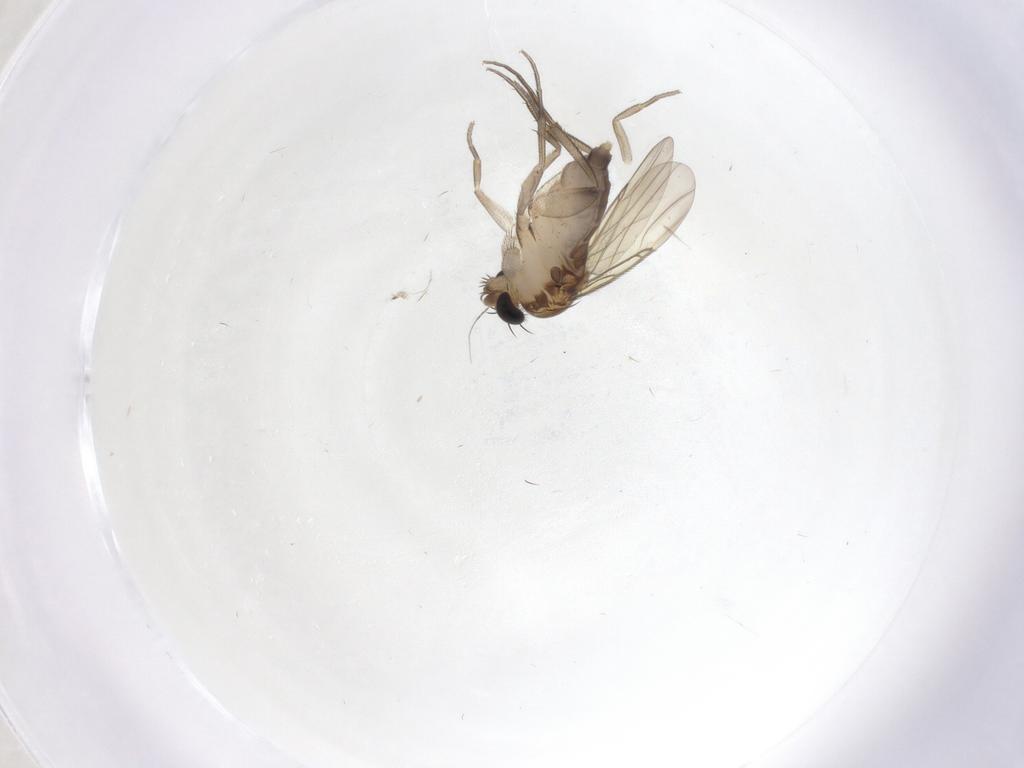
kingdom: Animalia
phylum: Arthropoda
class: Insecta
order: Diptera
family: Phoridae
